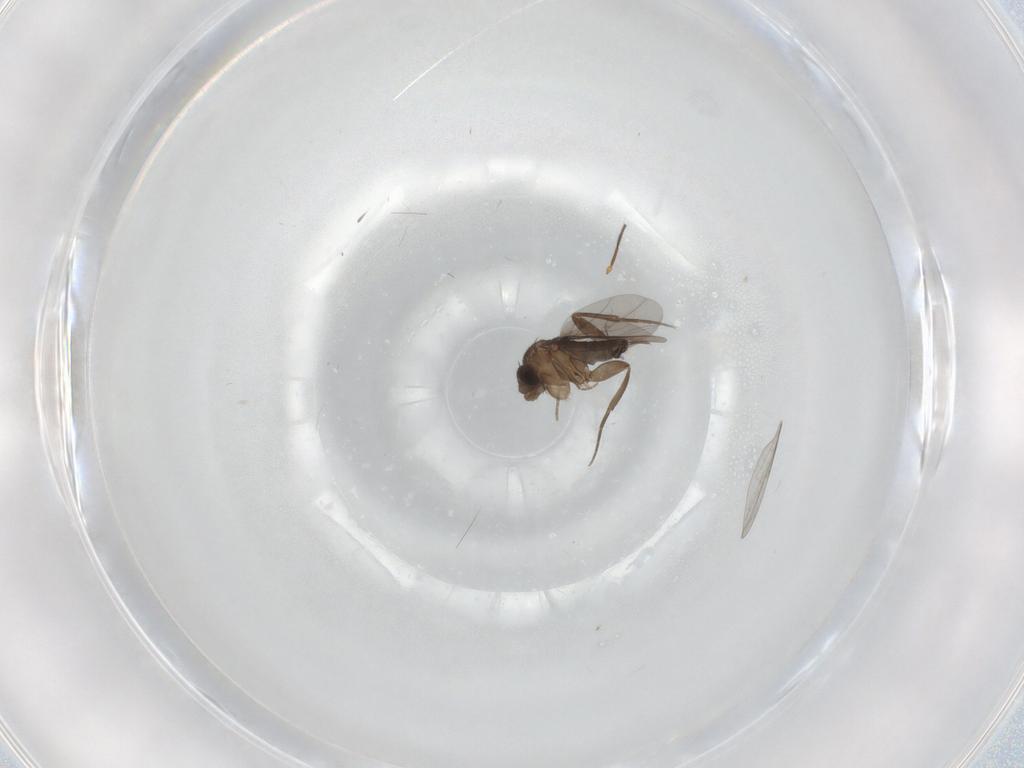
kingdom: Animalia
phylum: Arthropoda
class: Insecta
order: Diptera
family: Phoridae
